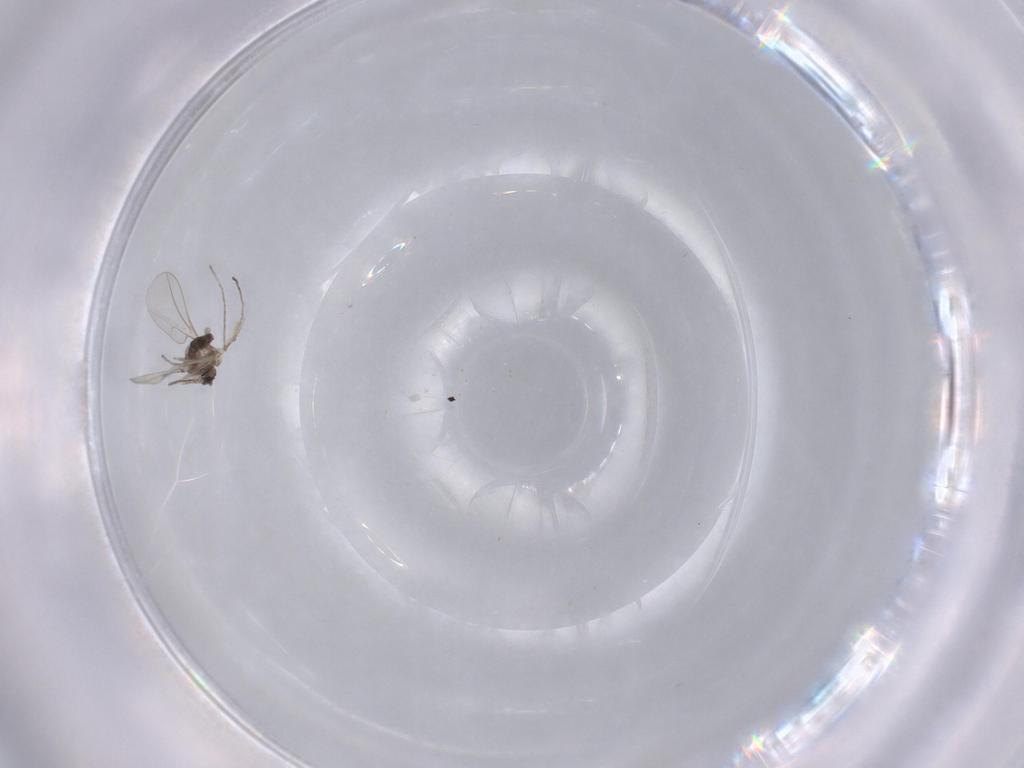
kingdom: Animalia
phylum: Arthropoda
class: Insecta
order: Diptera
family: Cecidomyiidae
